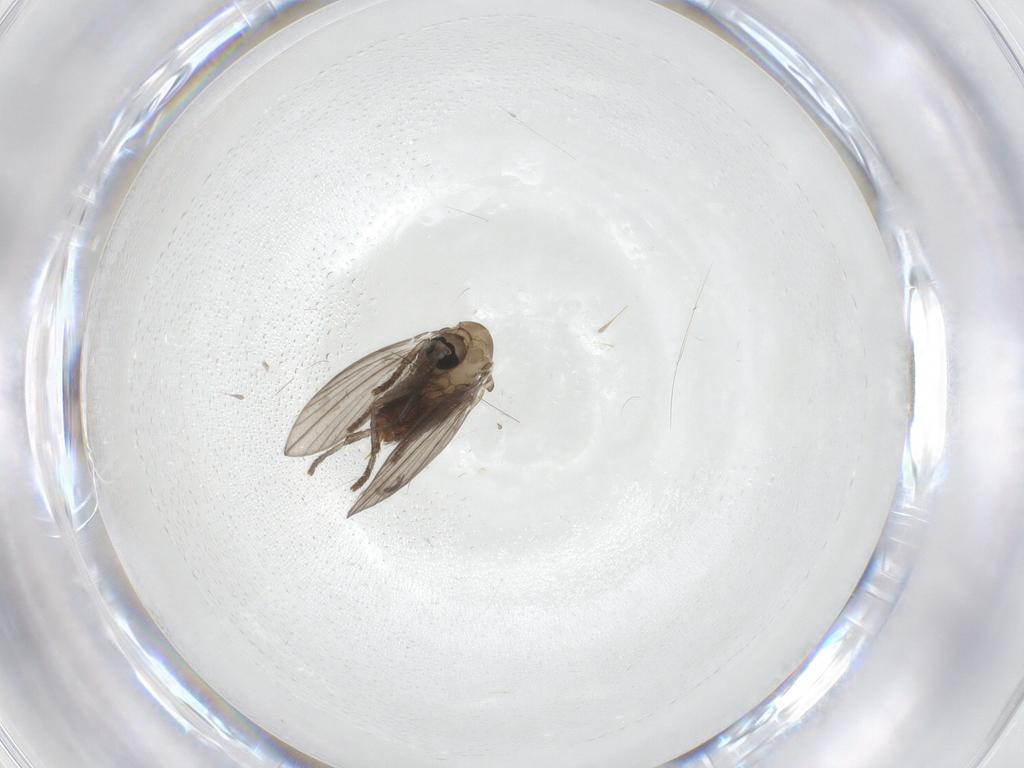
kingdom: Animalia
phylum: Arthropoda
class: Insecta
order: Diptera
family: Psychodidae
